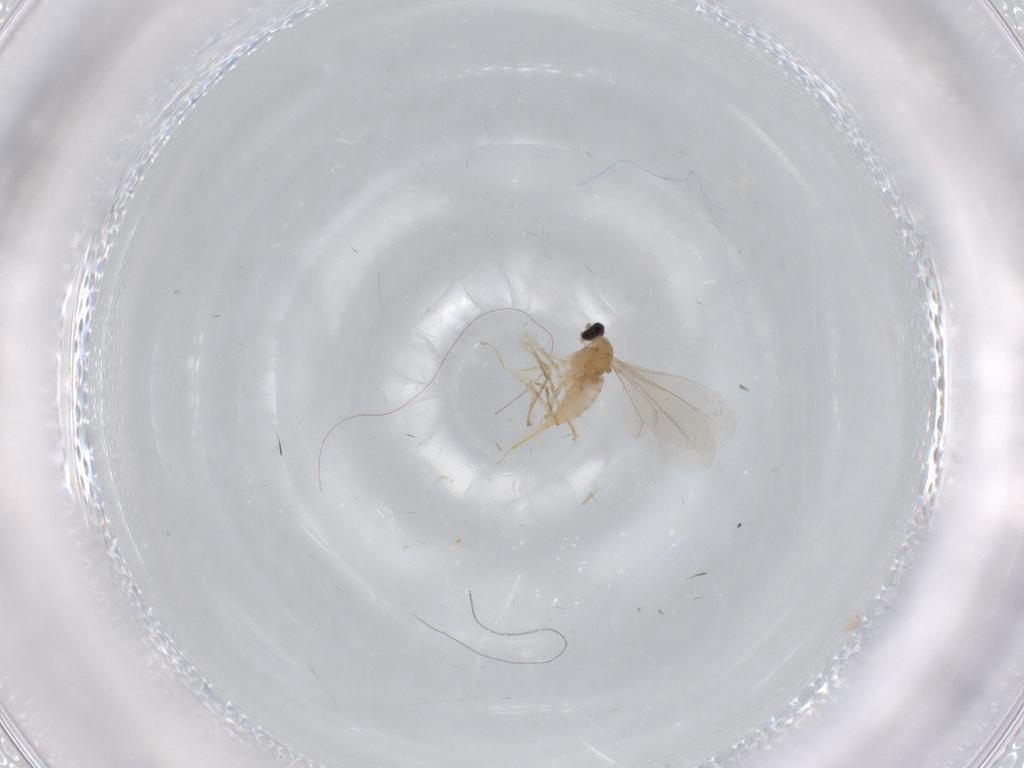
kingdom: Animalia
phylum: Arthropoda
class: Insecta
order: Diptera
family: Cecidomyiidae
